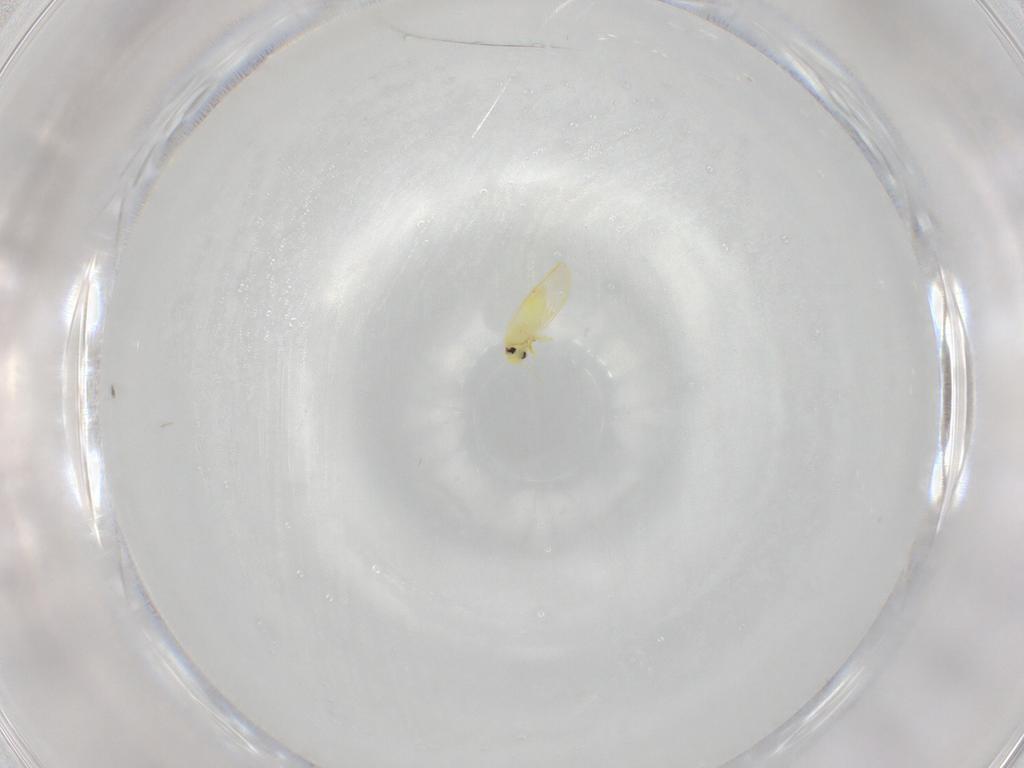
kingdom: Animalia
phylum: Arthropoda
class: Insecta
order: Hemiptera
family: Aleyrodidae
